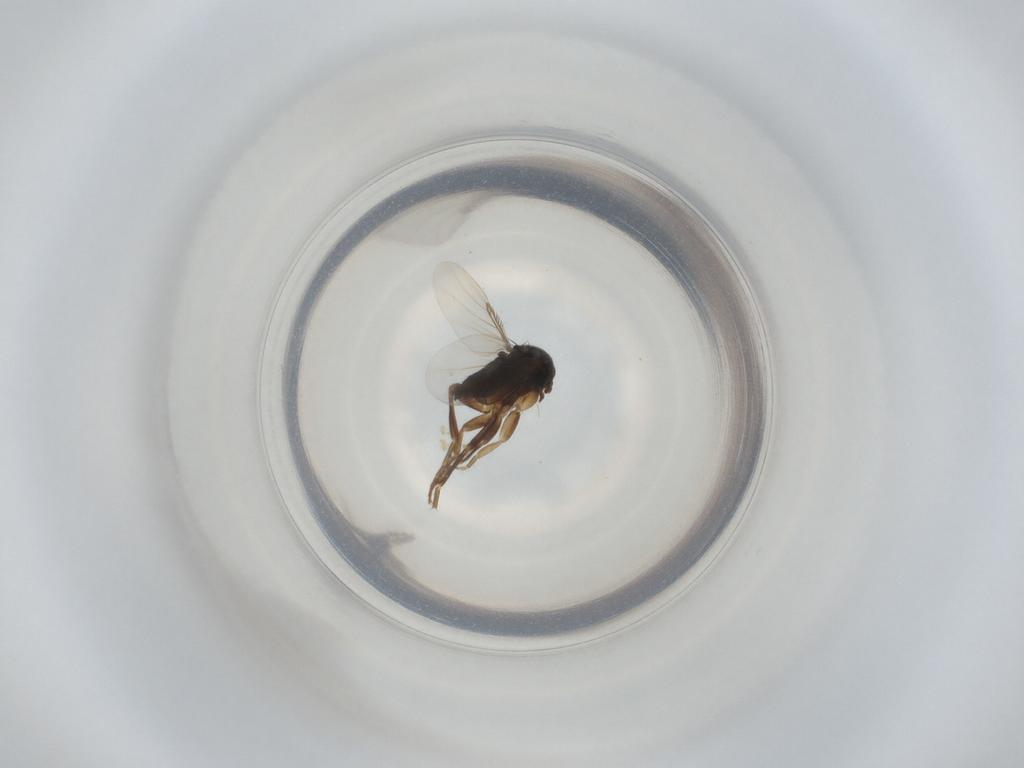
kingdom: Animalia
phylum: Arthropoda
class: Insecta
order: Diptera
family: Phoridae
